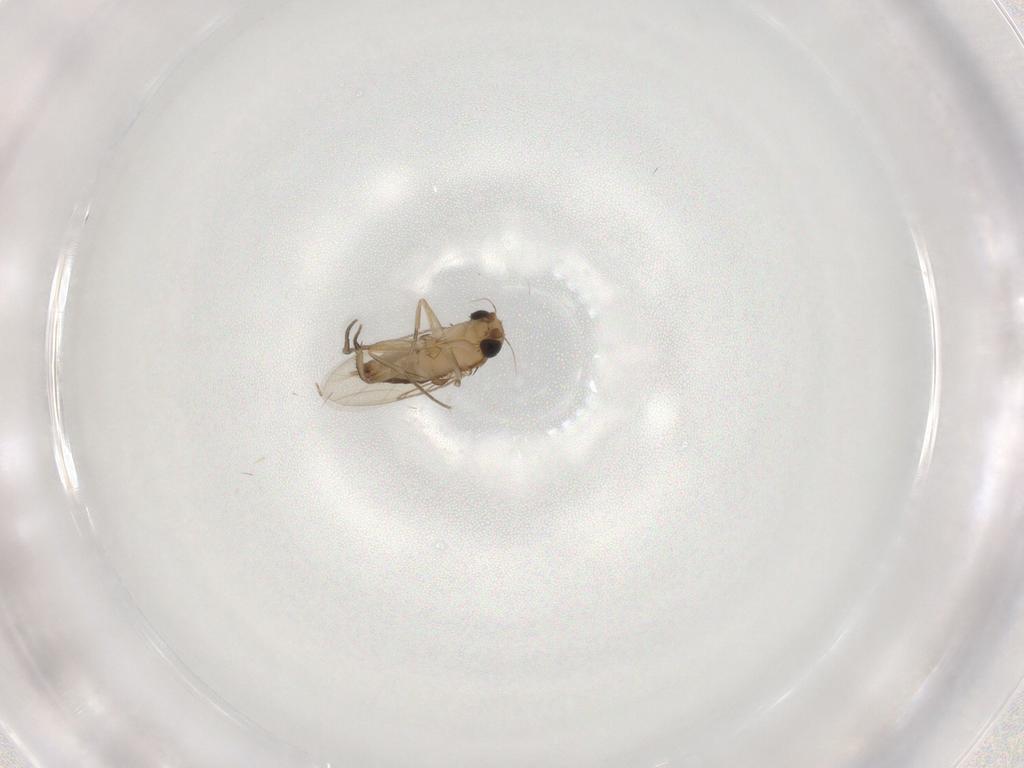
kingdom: Animalia
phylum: Arthropoda
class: Insecta
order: Diptera
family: Phoridae
